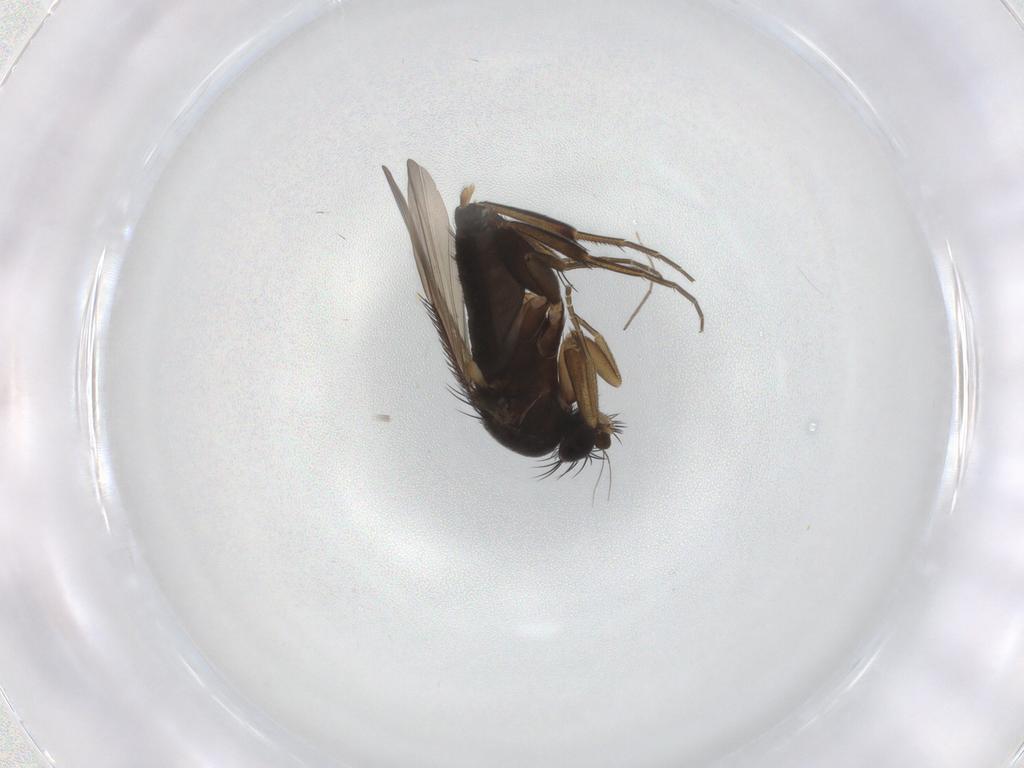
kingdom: Animalia
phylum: Arthropoda
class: Insecta
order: Diptera
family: Phoridae
